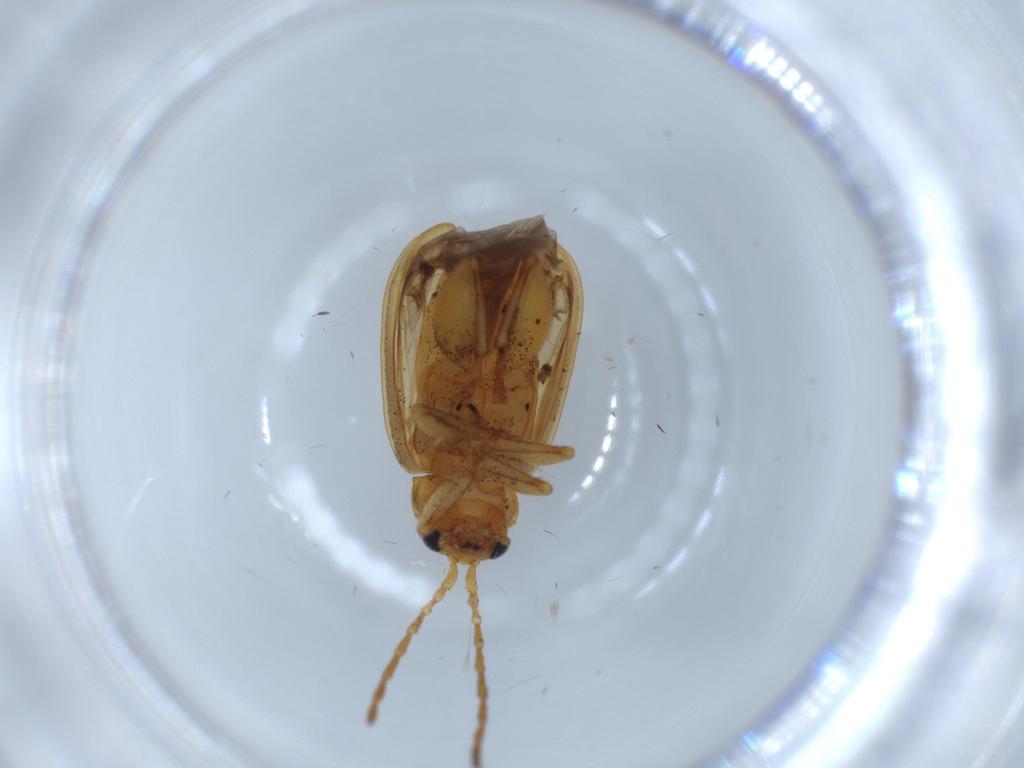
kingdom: Animalia
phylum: Arthropoda
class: Insecta
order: Coleoptera
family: Chrysomelidae
